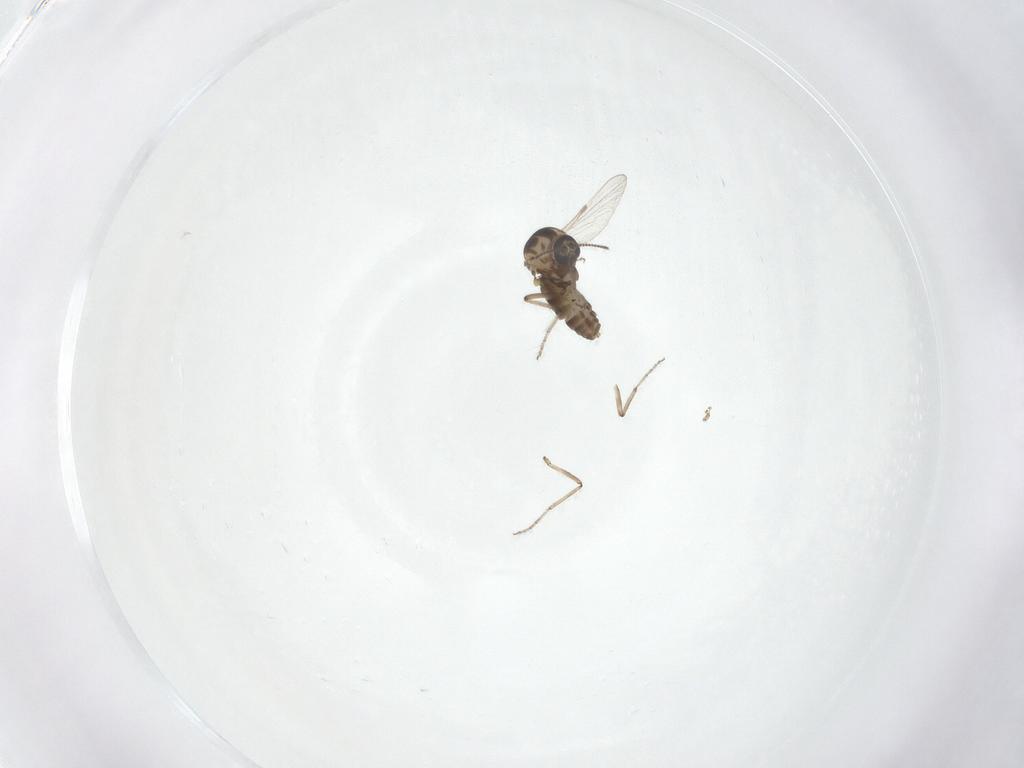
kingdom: Animalia
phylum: Arthropoda
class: Insecta
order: Diptera
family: Ceratopogonidae
